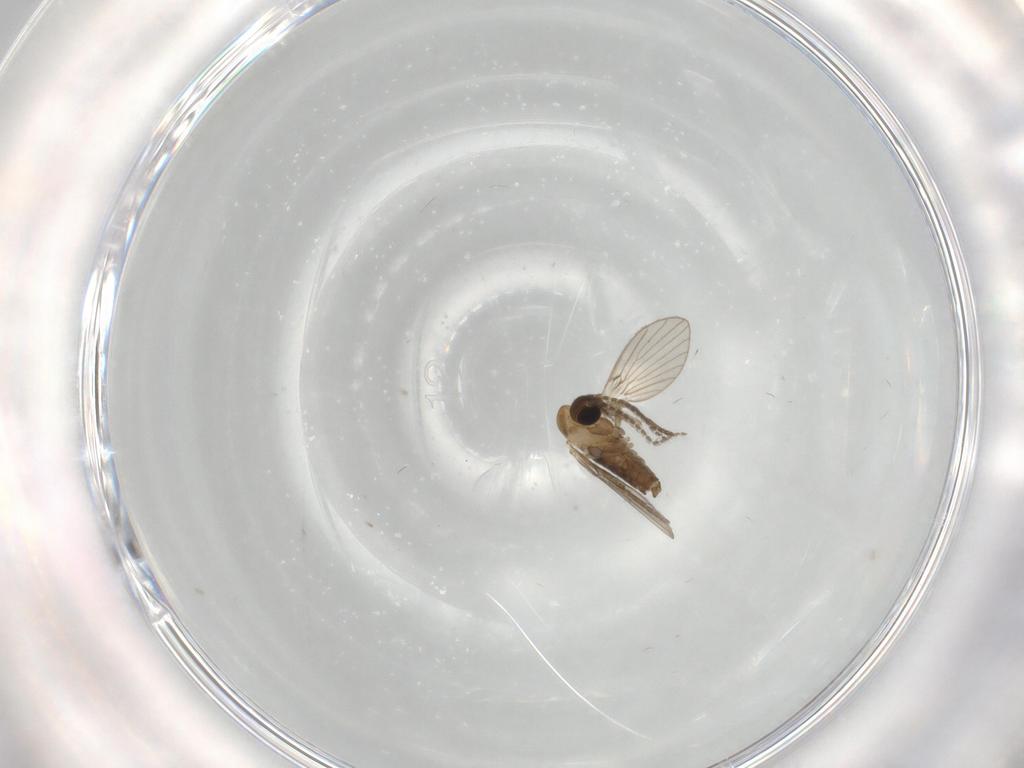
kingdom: Animalia
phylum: Arthropoda
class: Insecta
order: Diptera
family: Chironomidae
